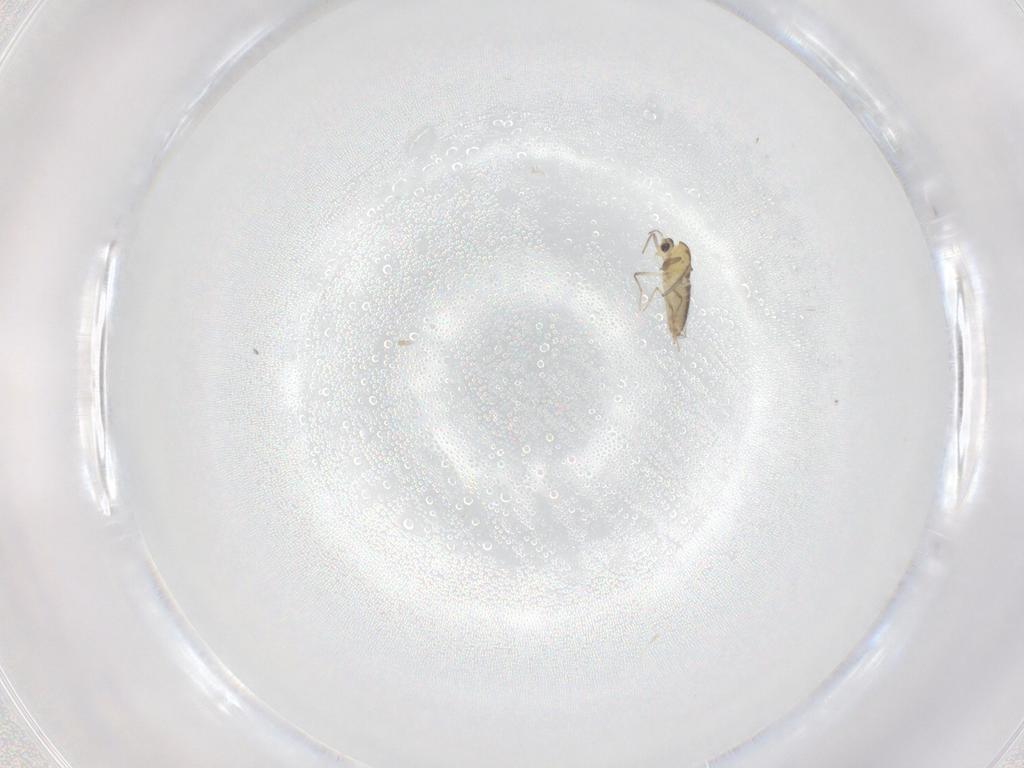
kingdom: Animalia
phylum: Arthropoda
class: Insecta
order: Diptera
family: Chironomidae
